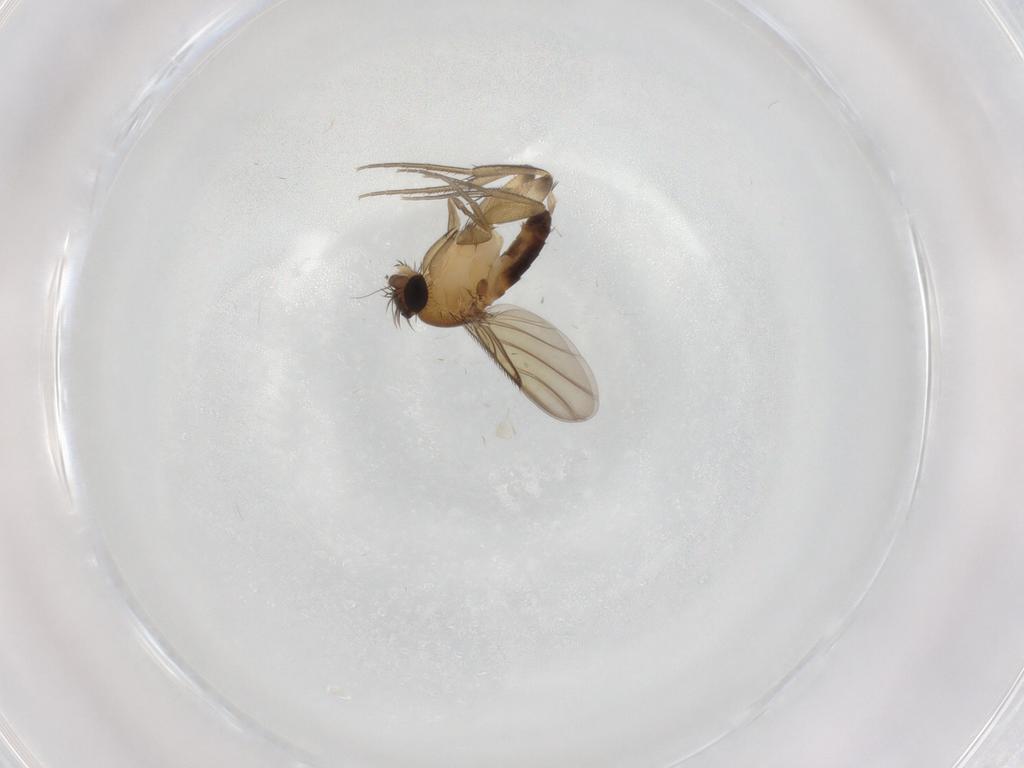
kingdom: Animalia
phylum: Arthropoda
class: Insecta
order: Diptera
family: Phoridae
